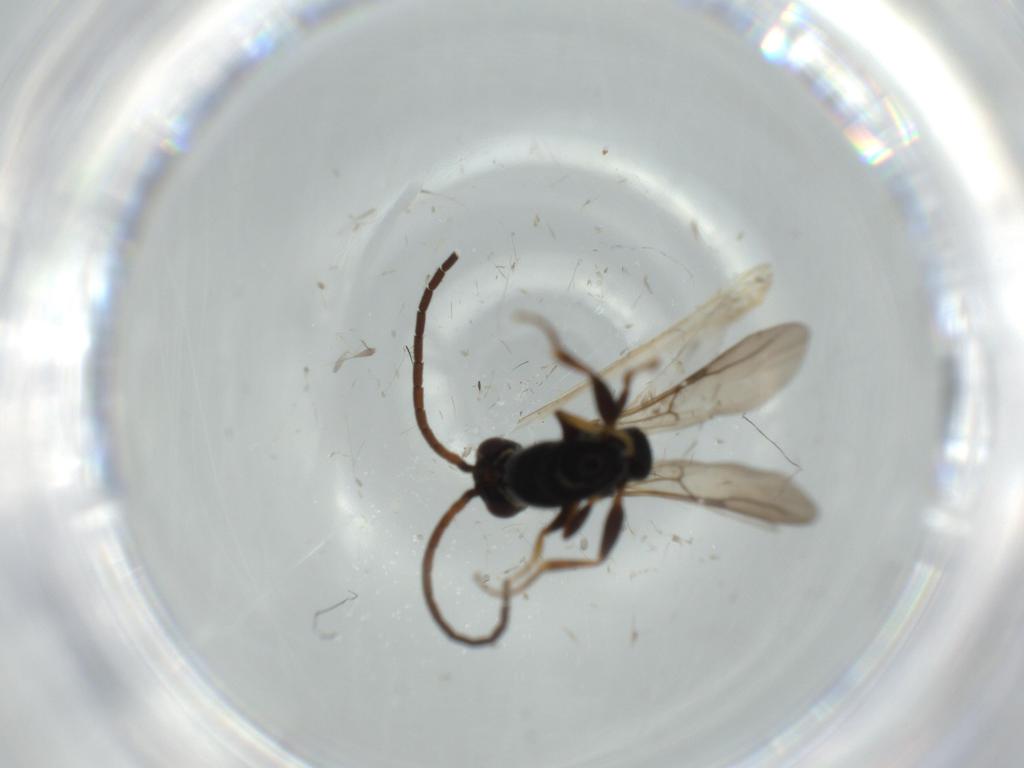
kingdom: Animalia
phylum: Arthropoda
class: Insecta
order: Hymenoptera
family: Bethylidae
